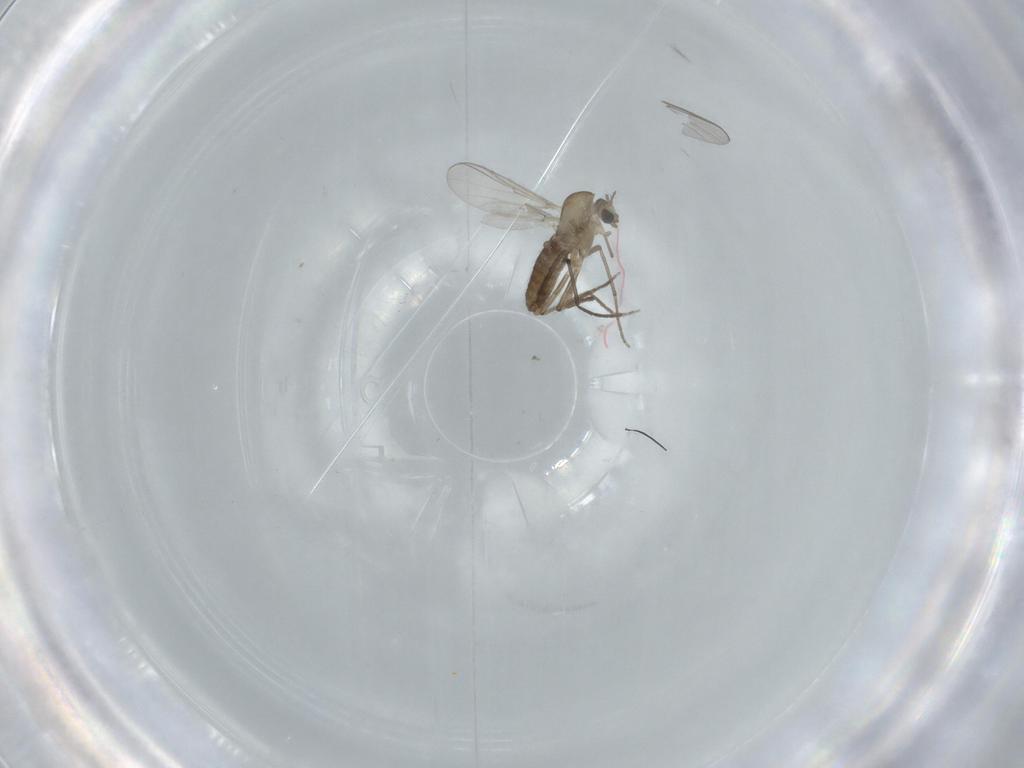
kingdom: Animalia
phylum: Arthropoda
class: Insecta
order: Diptera
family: Chironomidae
